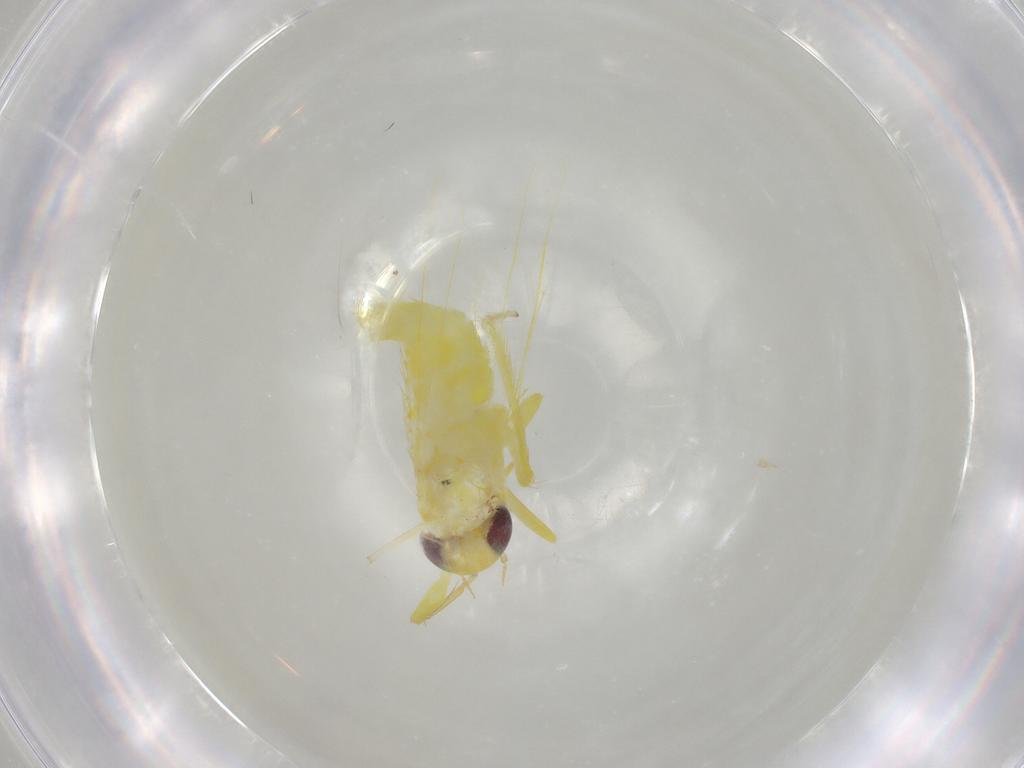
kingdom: Animalia
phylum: Arthropoda
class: Insecta
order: Hemiptera
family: Cicadellidae
